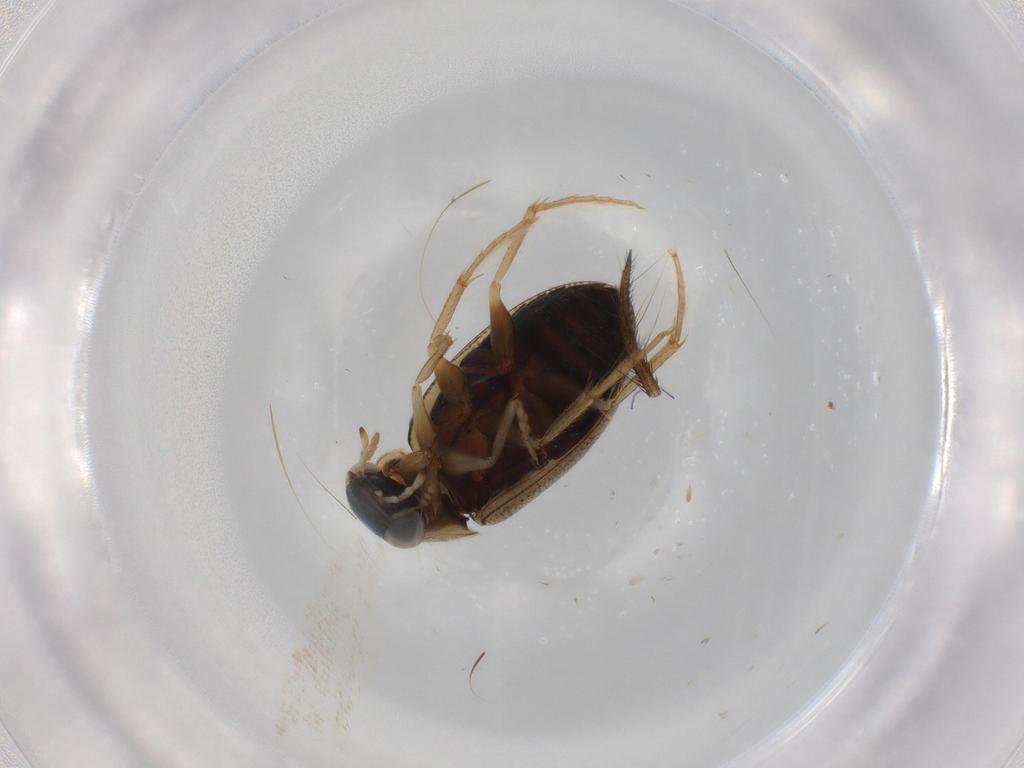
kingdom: Animalia
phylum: Arthropoda
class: Insecta
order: Coleoptera
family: Hydrophilidae
